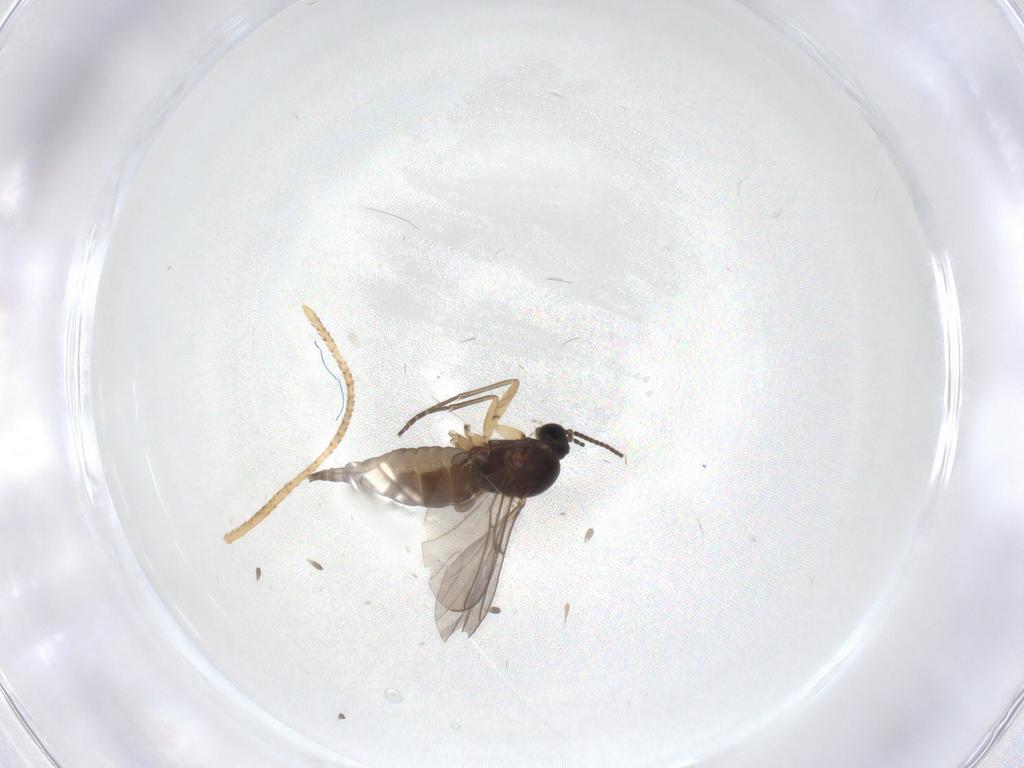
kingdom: Animalia
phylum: Arthropoda
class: Insecta
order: Diptera
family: Sciaridae
